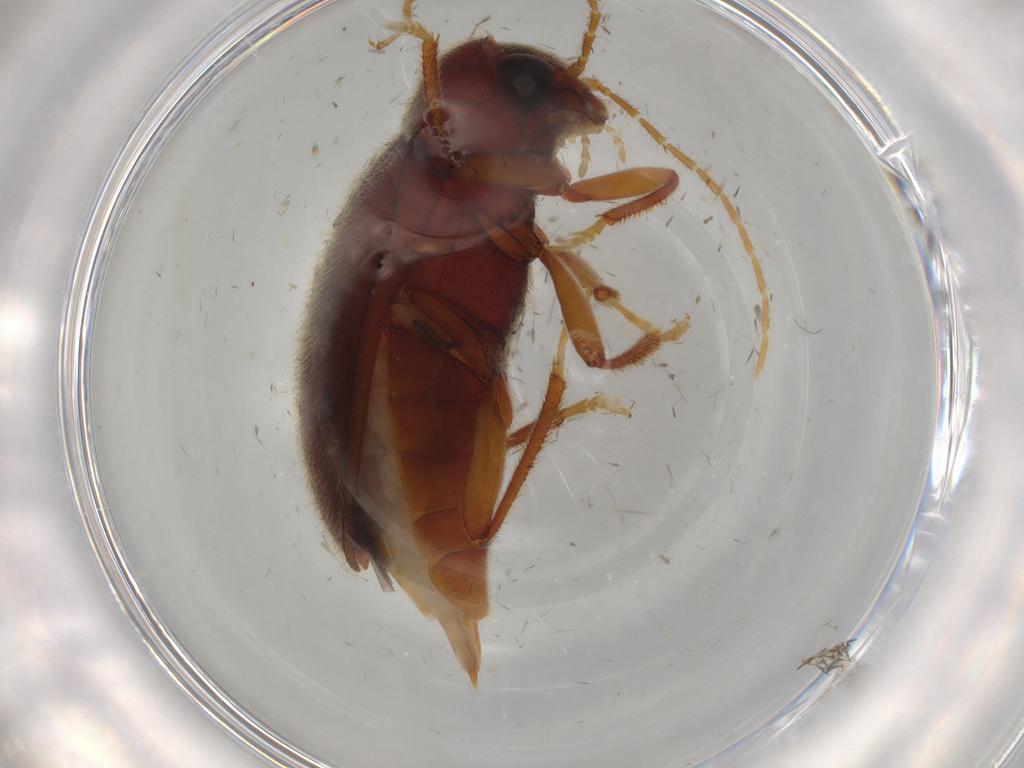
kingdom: Animalia
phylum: Arthropoda
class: Insecta
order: Coleoptera
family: Ptilodactylidae
